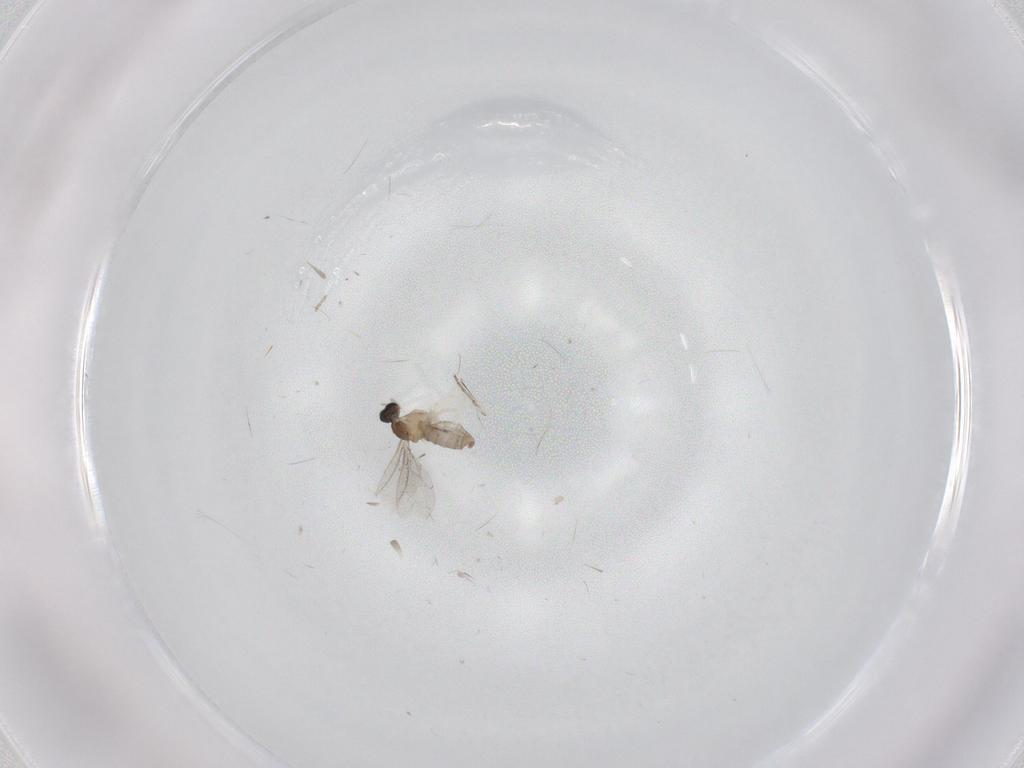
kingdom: Animalia
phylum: Arthropoda
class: Insecta
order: Diptera
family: Cecidomyiidae
